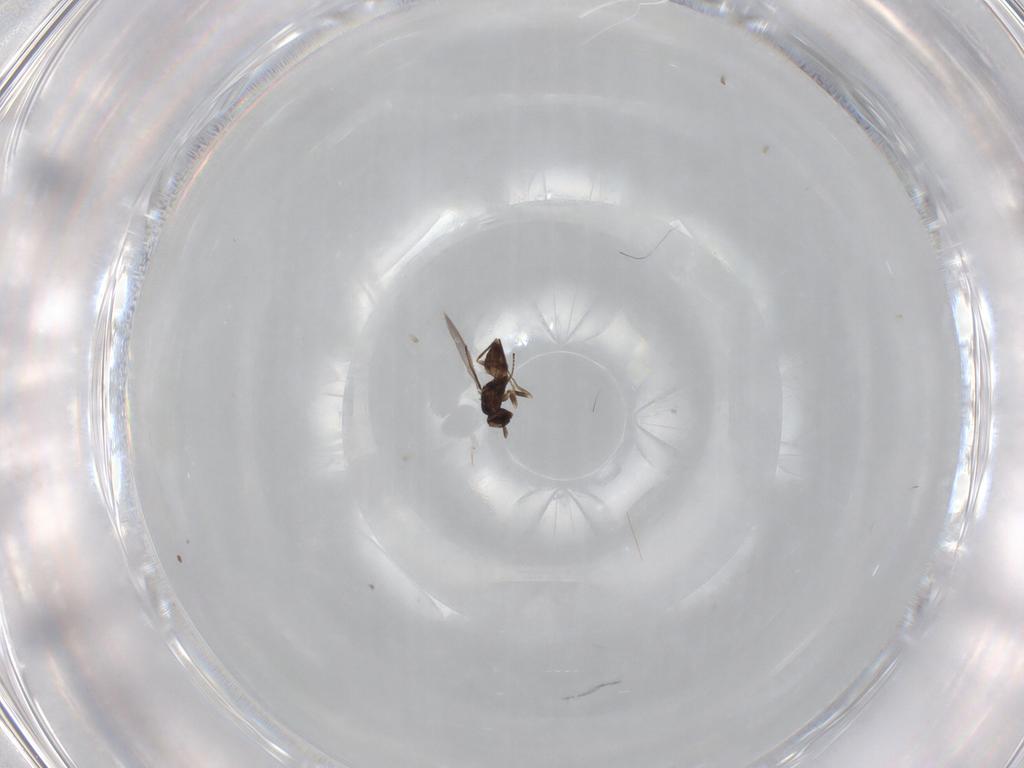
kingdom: Animalia
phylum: Arthropoda
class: Insecta
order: Hymenoptera
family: Mymaridae
